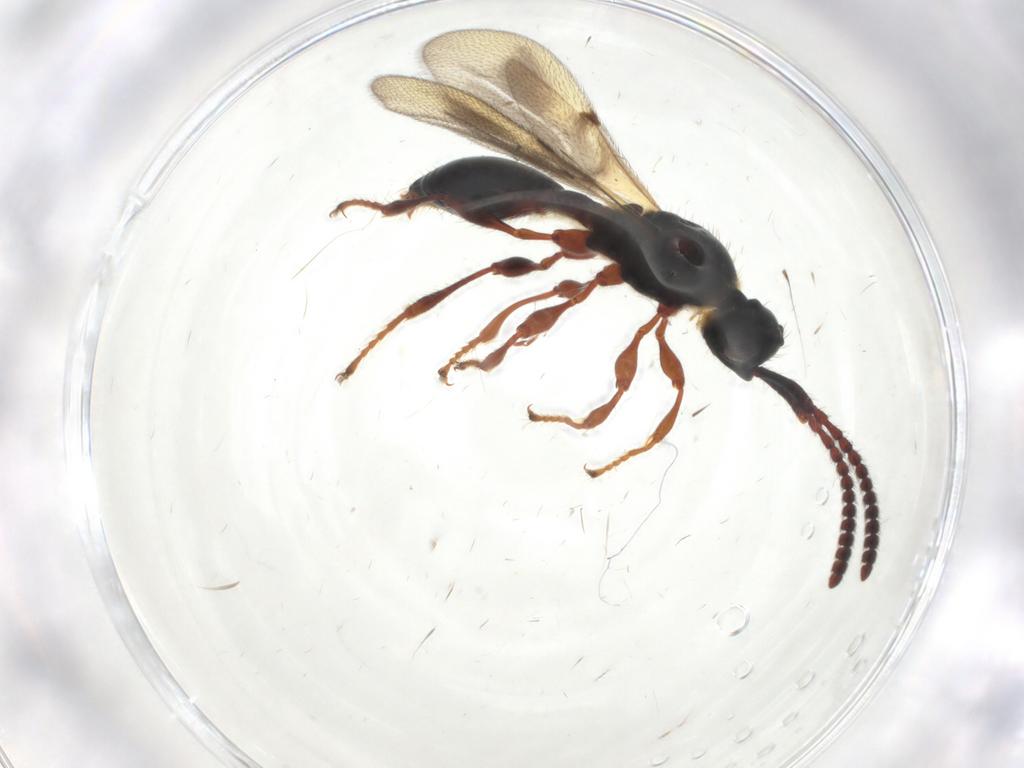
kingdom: Animalia
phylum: Arthropoda
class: Insecta
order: Hymenoptera
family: Diapriidae
